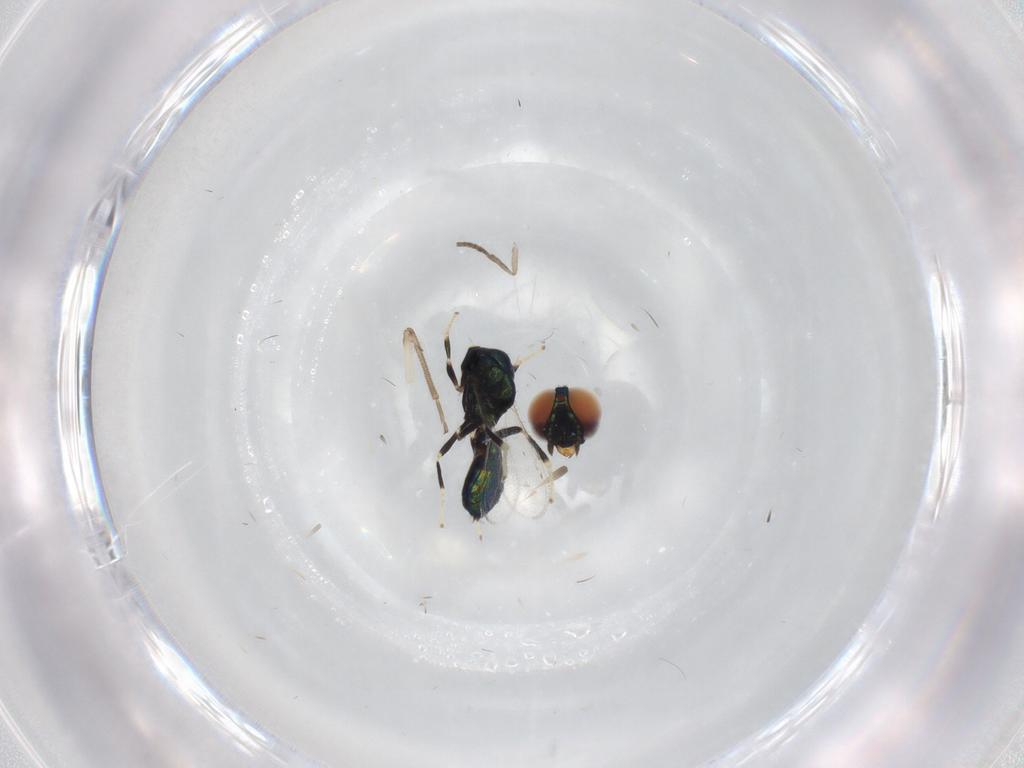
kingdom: Animalia
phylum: Arthropoda
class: Insecta
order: Diptera
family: Psychodidae
